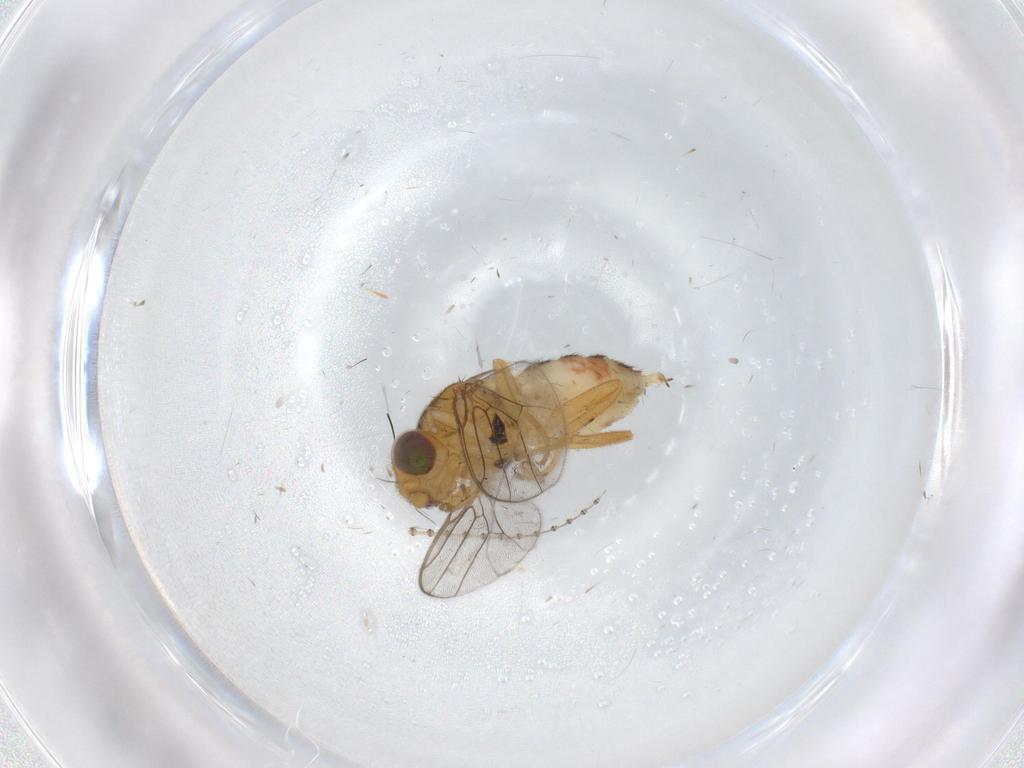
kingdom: Animalia
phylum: Arthropoda
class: Insecta
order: Diptera
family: Chloropidae
